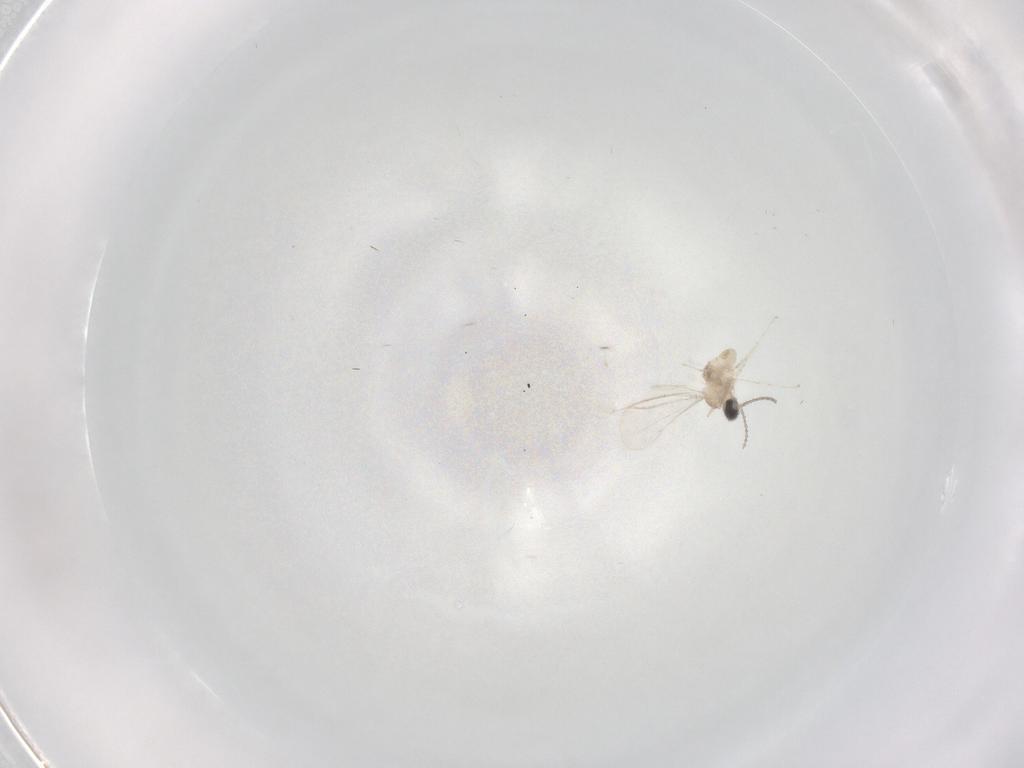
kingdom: Animalia
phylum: Arthropoda
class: Insecta
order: Diptera
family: Cecidomyiidae
